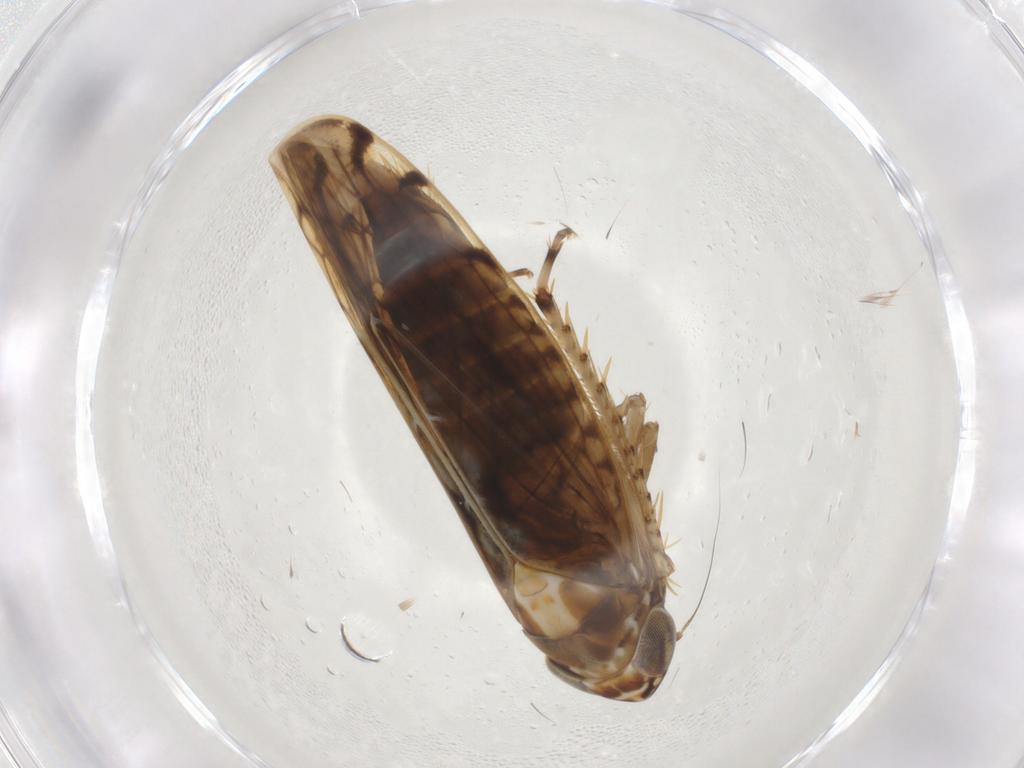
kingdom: Animalia
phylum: Arthropoda
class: Insecta
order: Hemiptera
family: Cicadellidae
